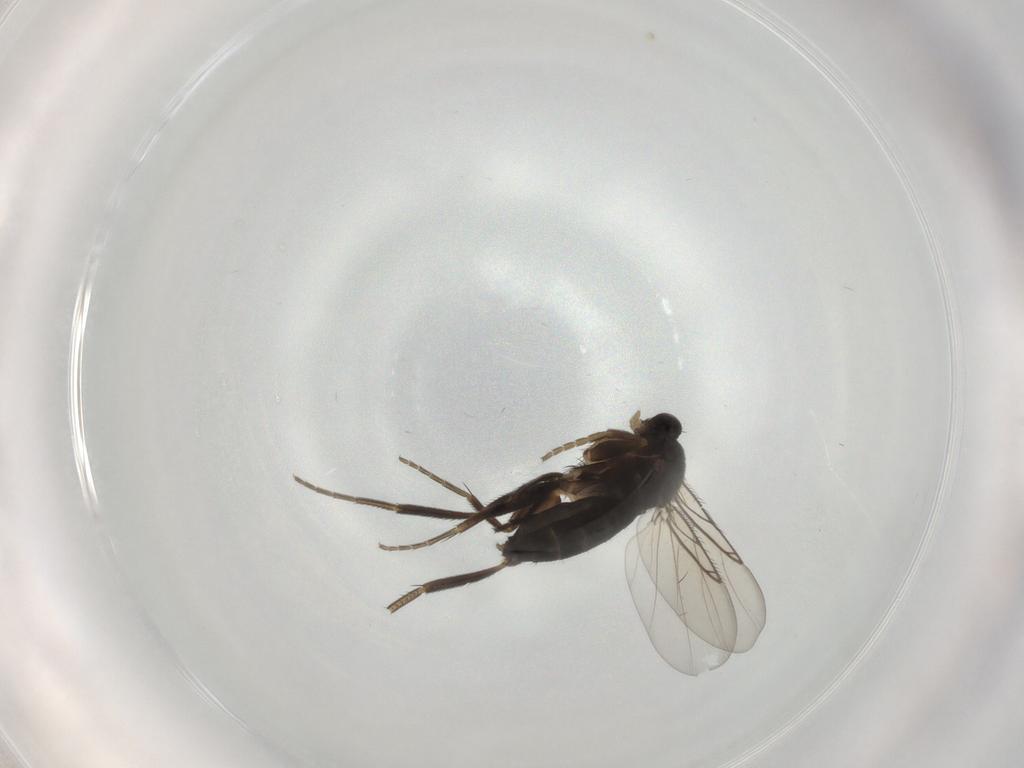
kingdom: Animalia
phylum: Arthropoda
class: Insecta
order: Diptera
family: Phoridae
